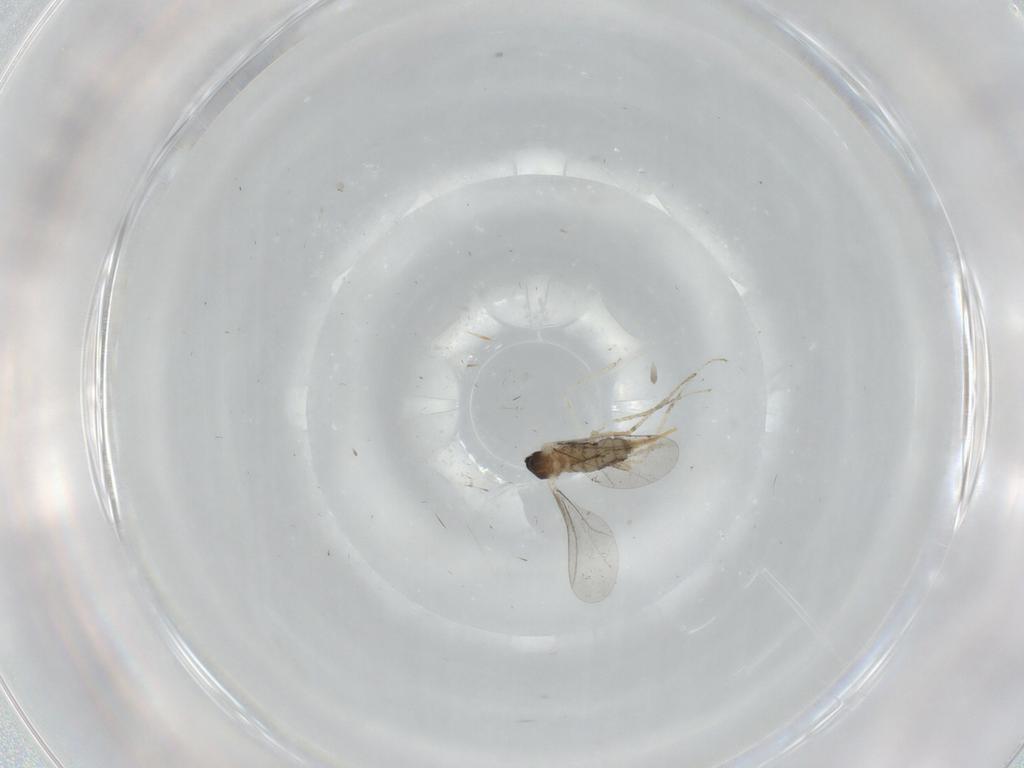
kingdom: Animalia
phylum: Arthropoda
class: Insecta
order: Diptera
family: Cecidomyiidae
